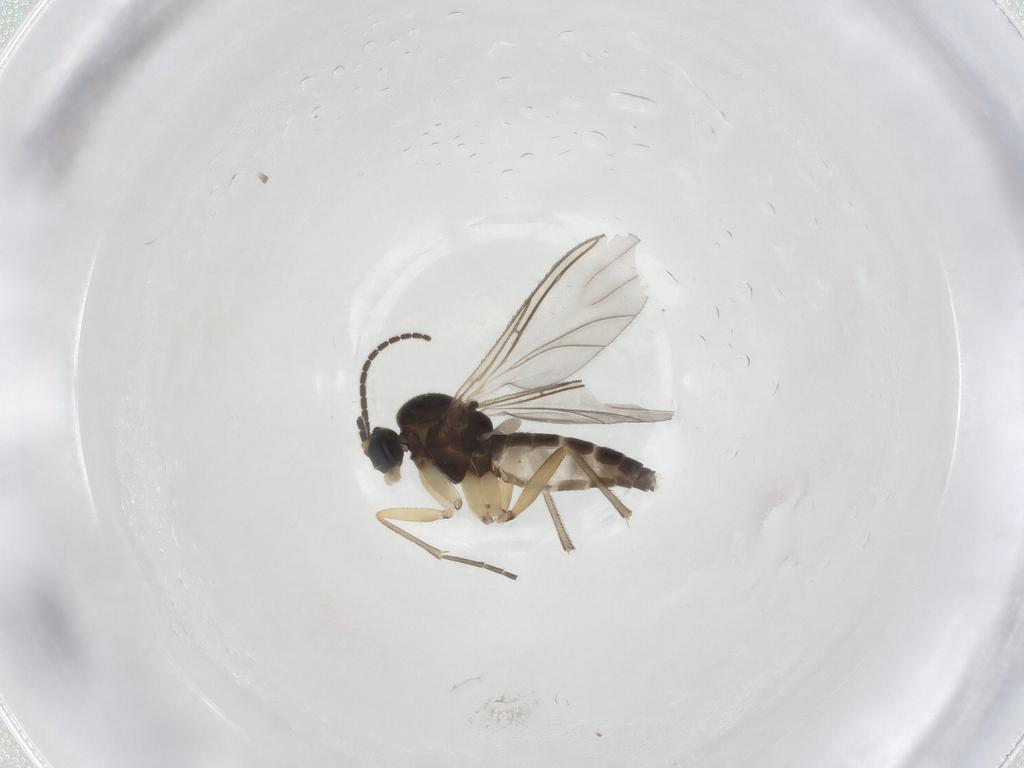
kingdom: Animalia
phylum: Arthropoda
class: Insecta
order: Diptera
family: Sciaridae
